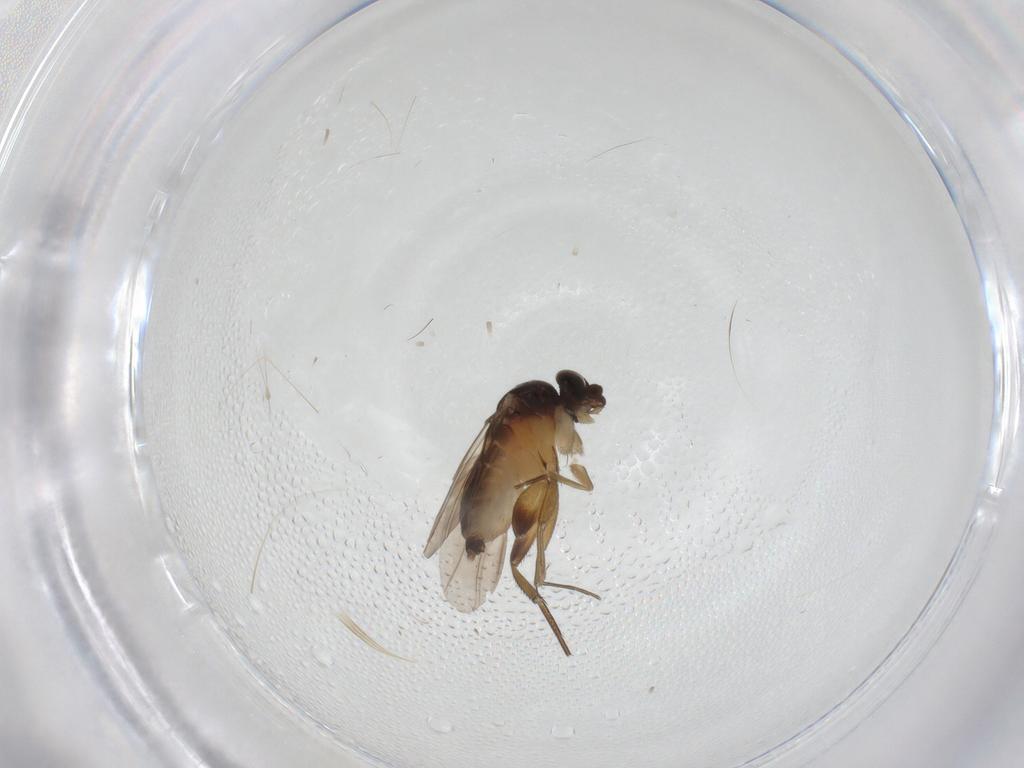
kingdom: Animalia
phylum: Arthropoda
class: Insecta
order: Diptera
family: Phoridae
